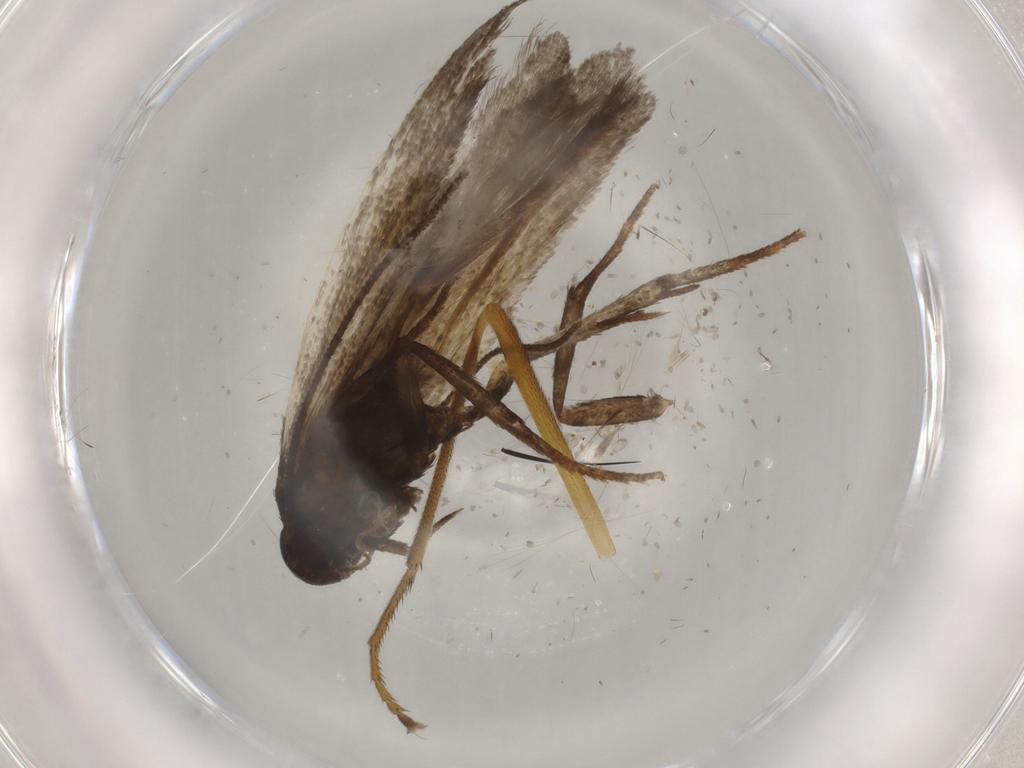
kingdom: Animalia
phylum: Arthropoda
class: Insecta
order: Lepidoptera
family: Gelechiidae
